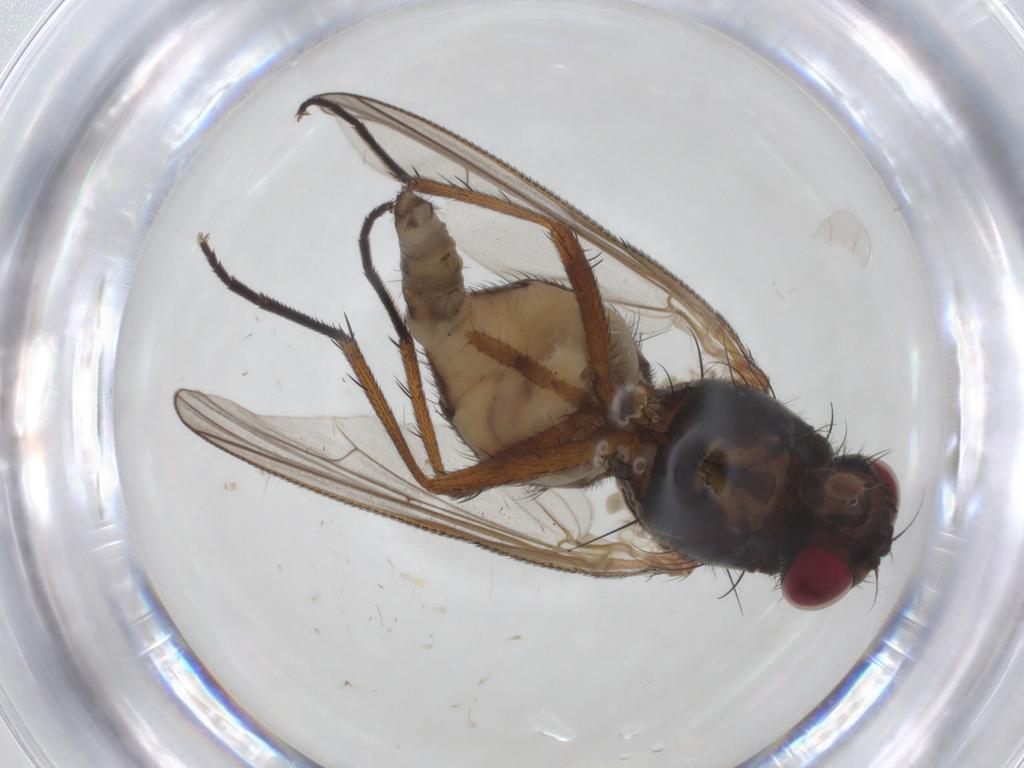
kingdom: Animalia
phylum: Arthropoda
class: Insecta
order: Diptera
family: Anthomyiidae
